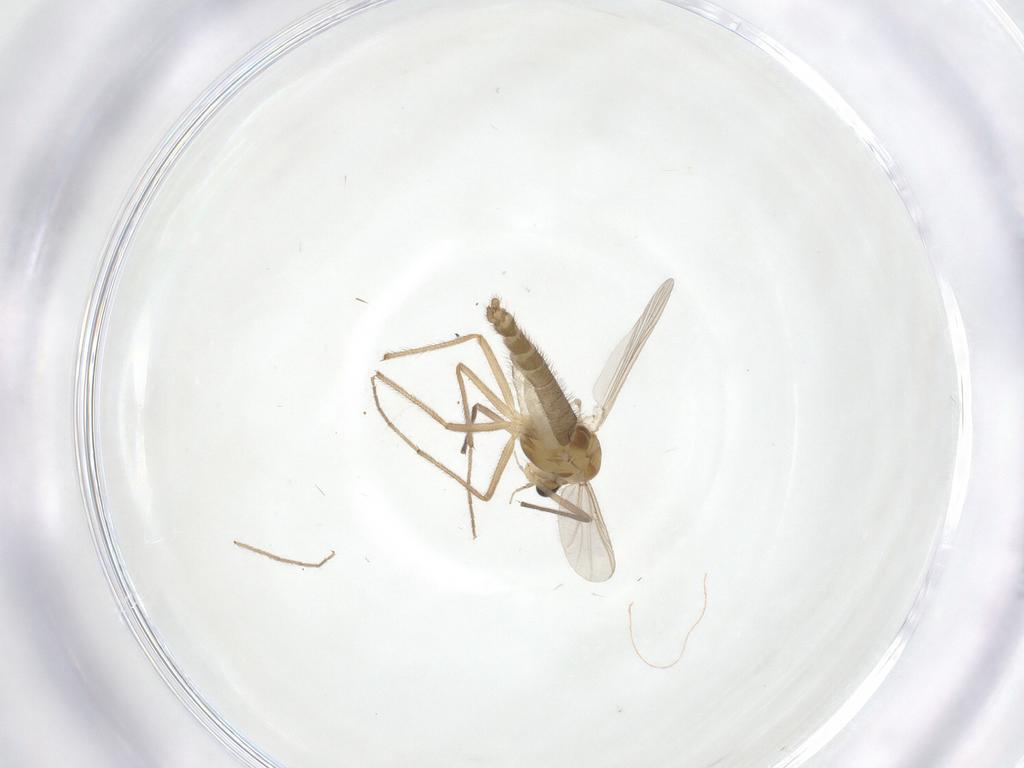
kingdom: Animalia
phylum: Arthropoda
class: Insecta
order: Diptera
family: Chironomidae
